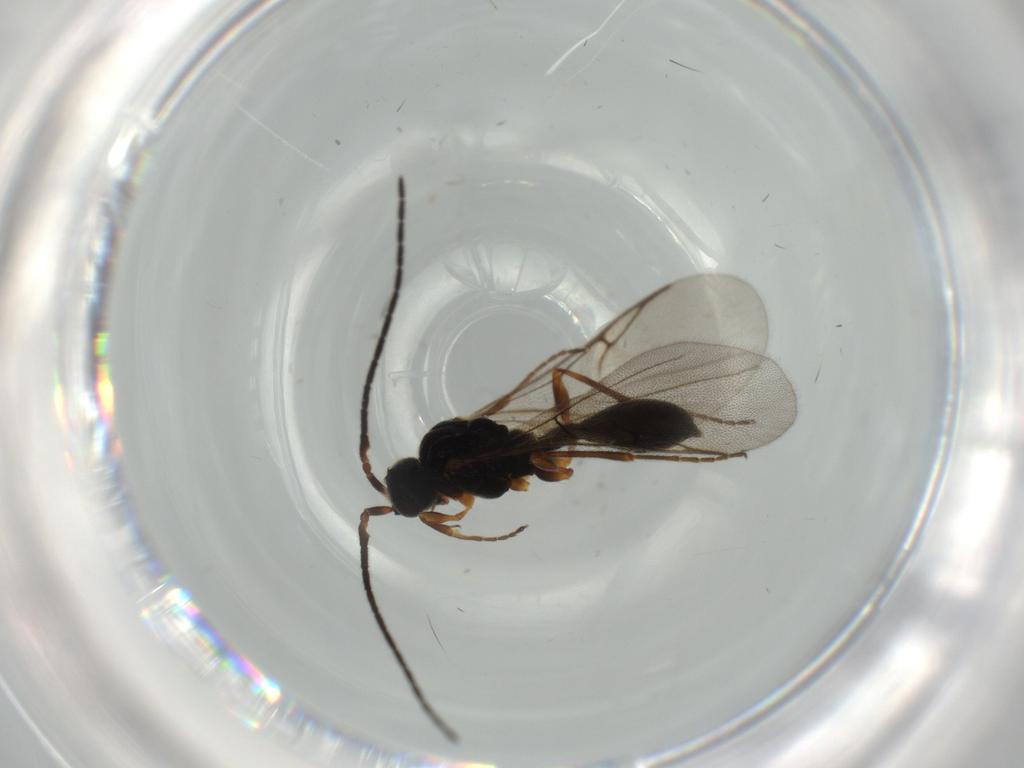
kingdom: Animalia
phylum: Arthropoda
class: Insecta
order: Hymenoptera
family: Diapriidae
